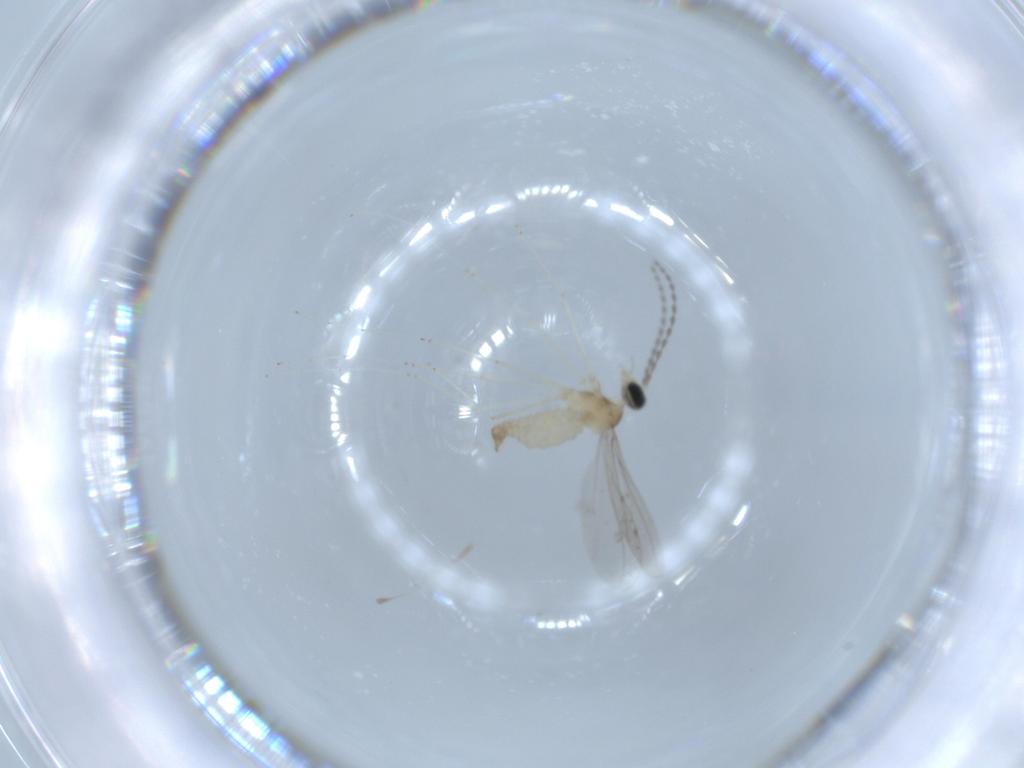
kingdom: Animalia
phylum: Arthropoda
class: Insecta
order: Diptera
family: Cecidomyiidae
